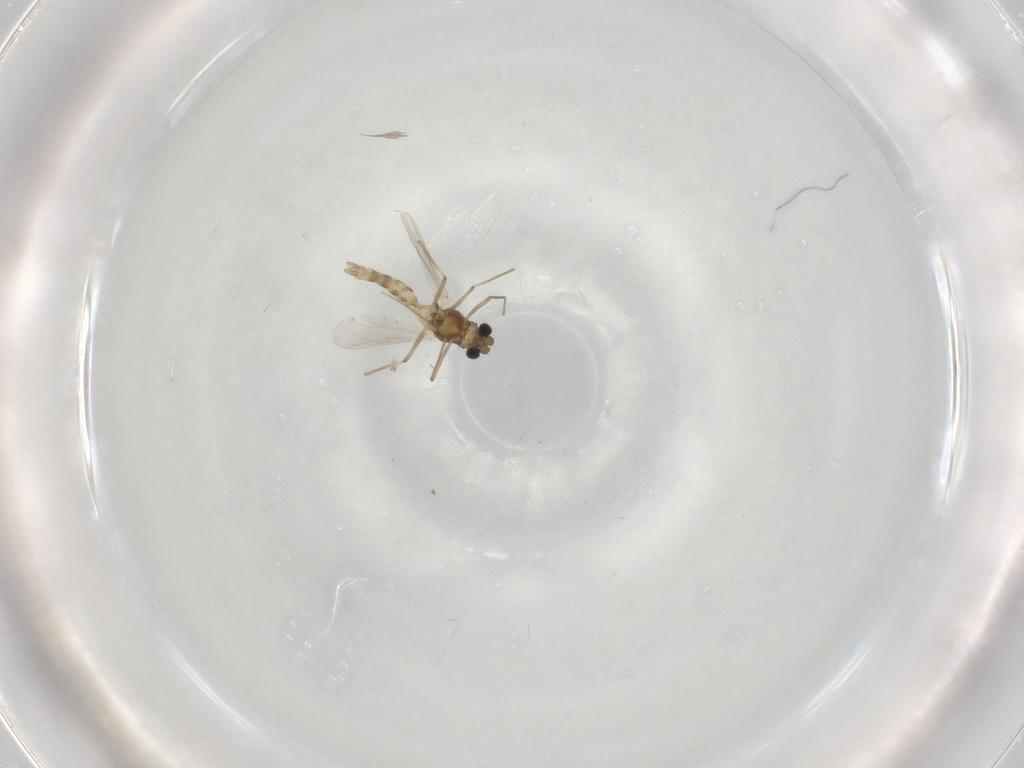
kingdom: Animalia
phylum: Arthropoda
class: Insecta
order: Diptera
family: Chironomidae
